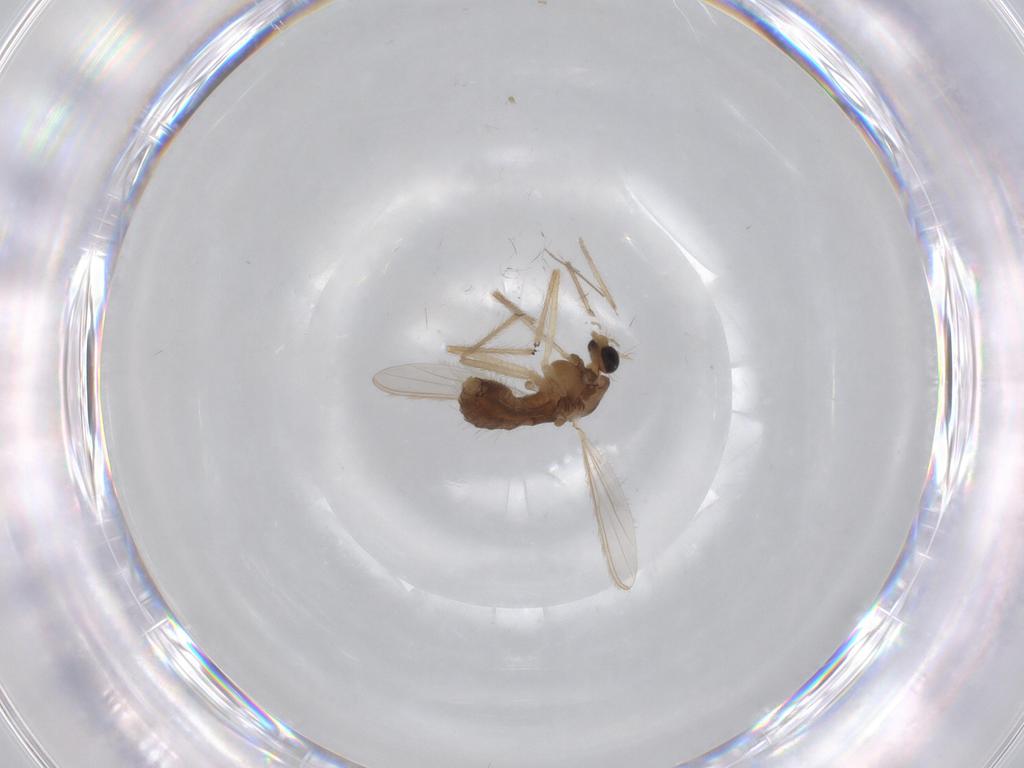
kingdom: Animalia
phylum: Arthropoda
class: Insecta
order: Diptera
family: Chironomidae
